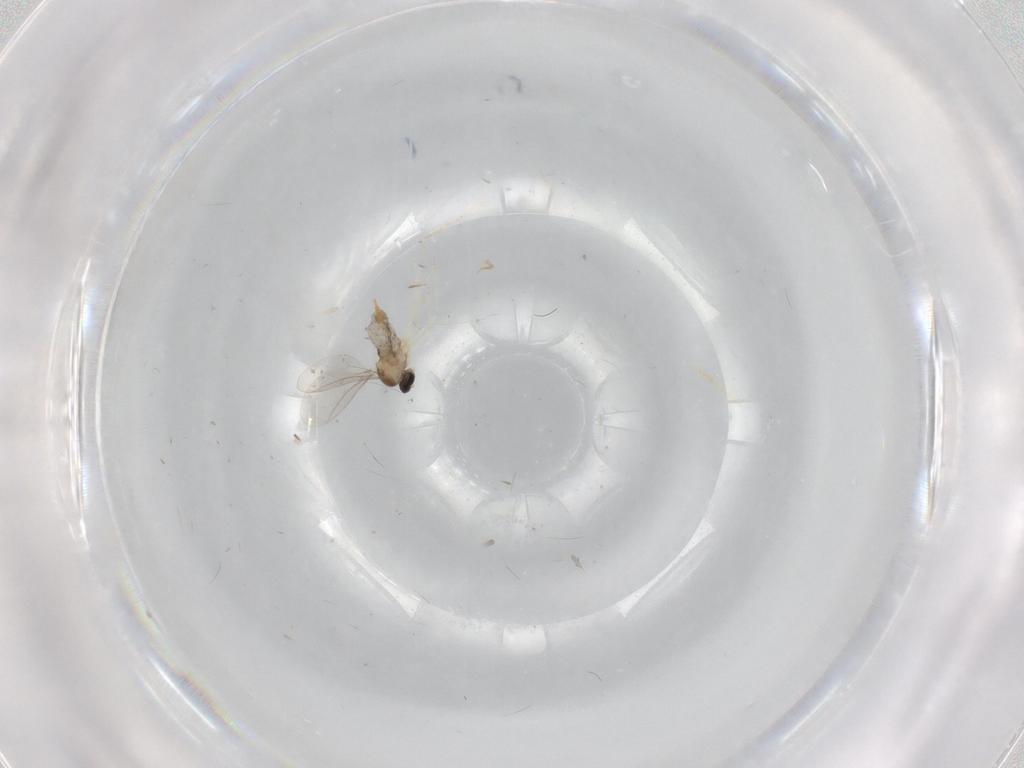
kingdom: Animalia
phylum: Arthropoda
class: Insecta
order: Diptera
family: Cecidomyiidae
